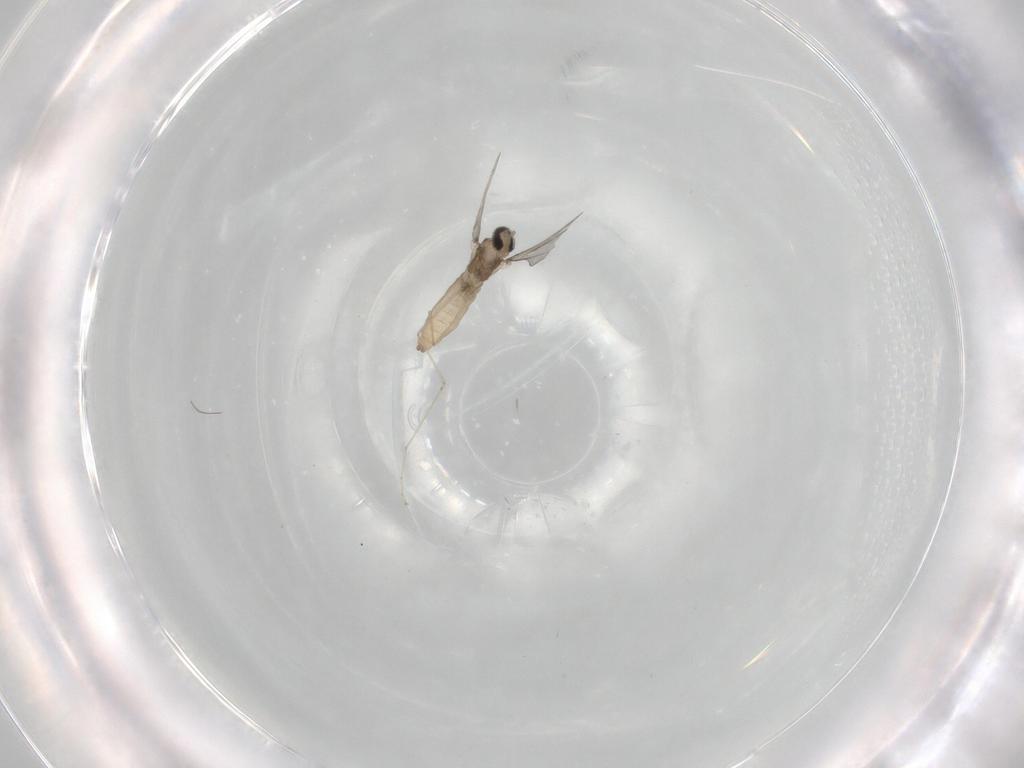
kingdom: Animalia
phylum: Arthropoda
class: Insecta
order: Diptera
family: Cecidomyiidae
